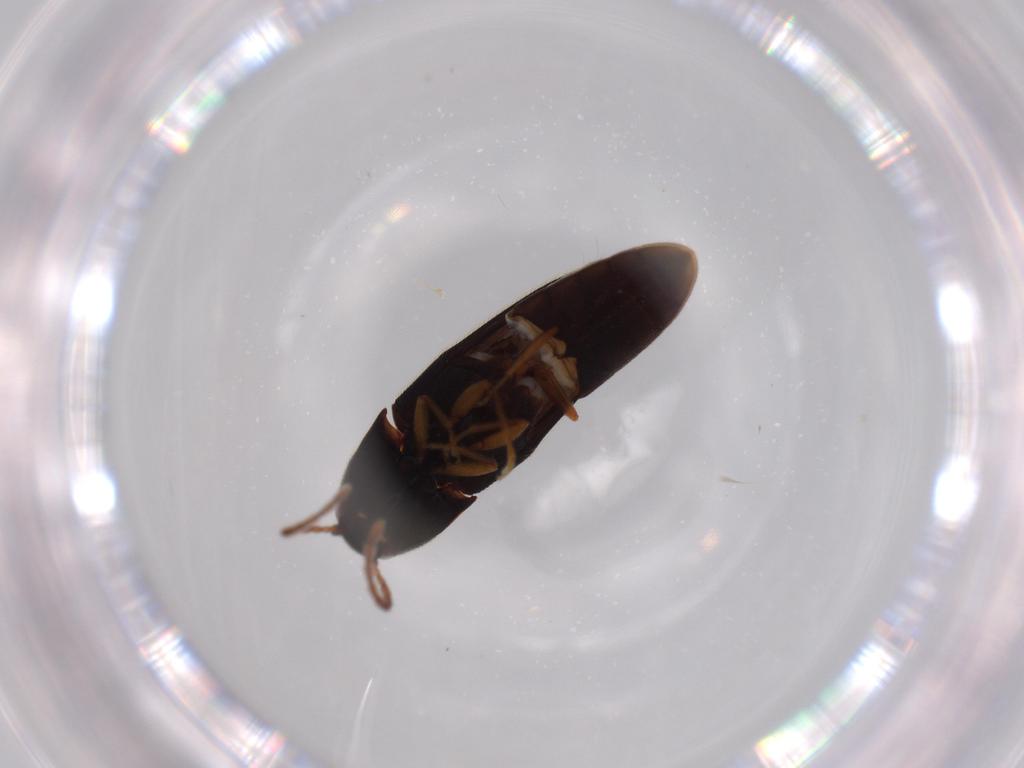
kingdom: Animalia
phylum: Arthropoda
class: Insecta
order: Coleoptera
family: Elateridae
